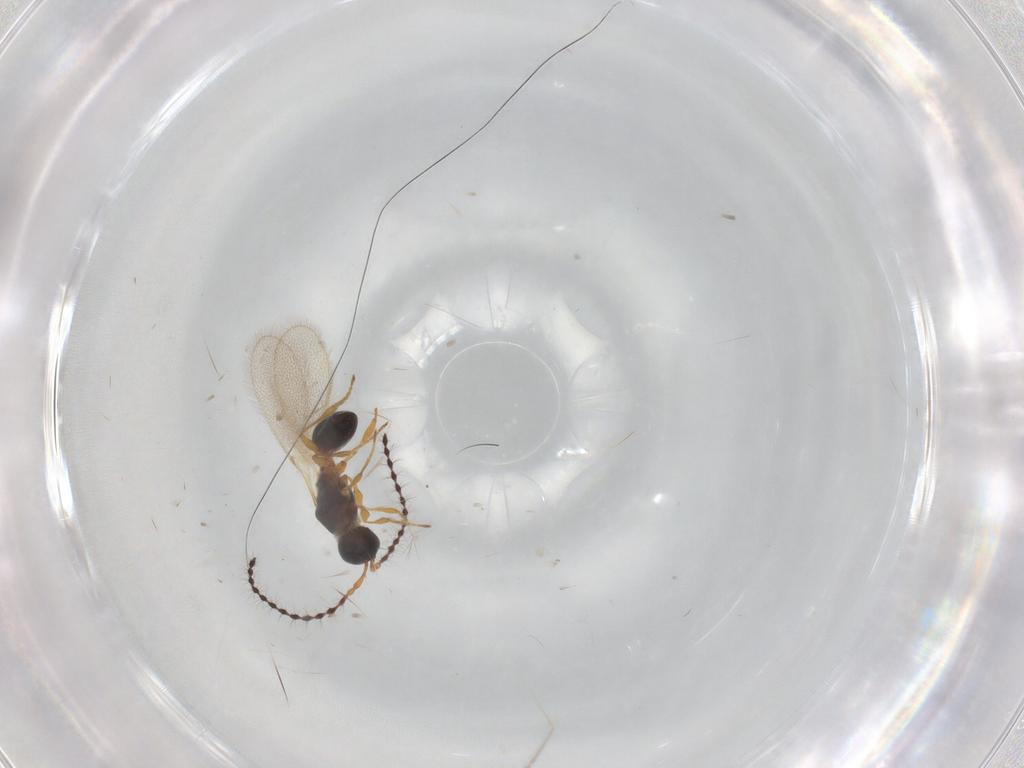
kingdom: Animalia
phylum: Arthropoda
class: Insecta
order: Hymenoptera
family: Diapriidae
